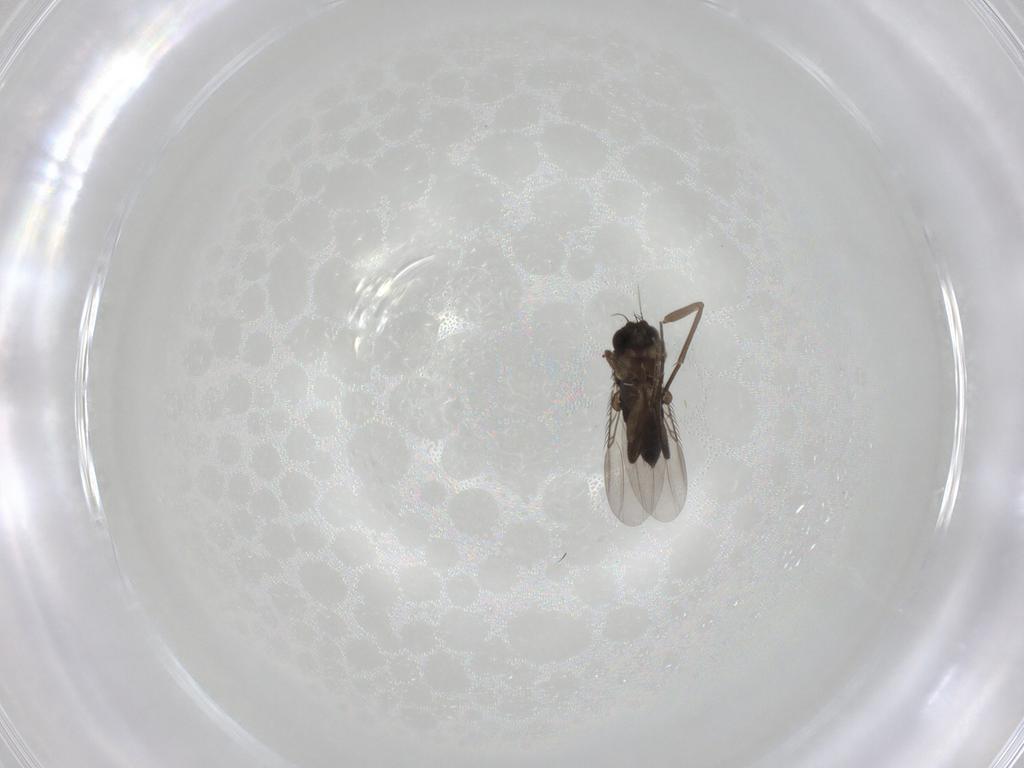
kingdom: Animalia
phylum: Arthropoda
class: Insecta
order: Diptera
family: Phoridae
